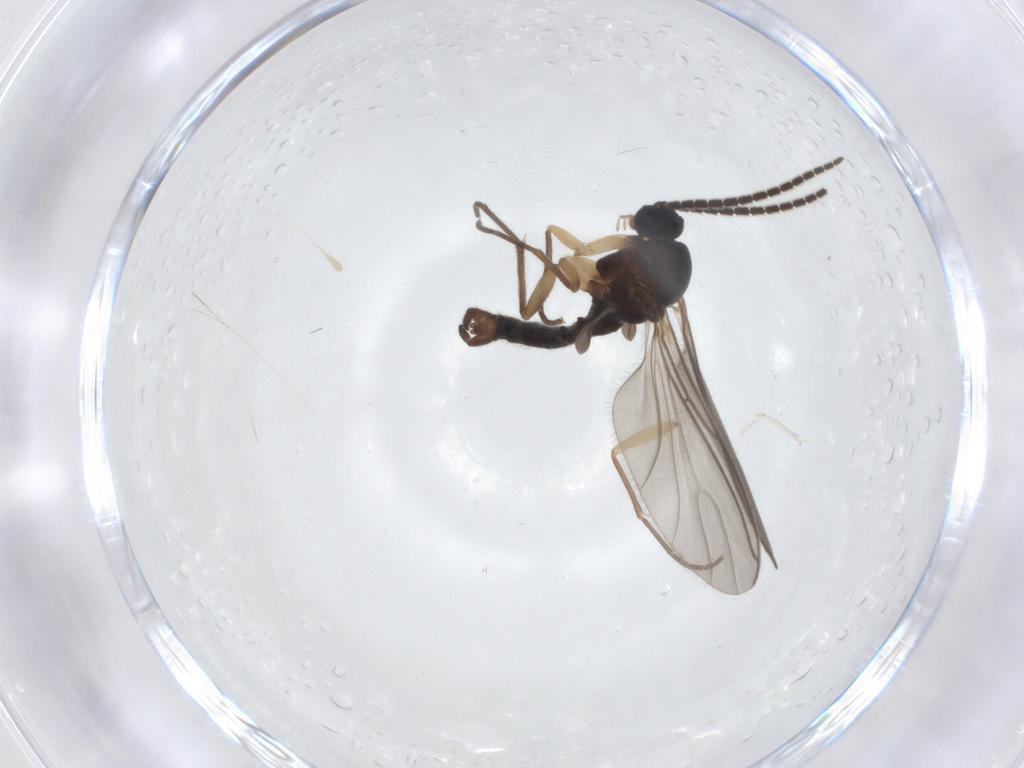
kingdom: Animalia
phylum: Arthropoda
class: Insecta
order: Diptera
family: Sciaridae
